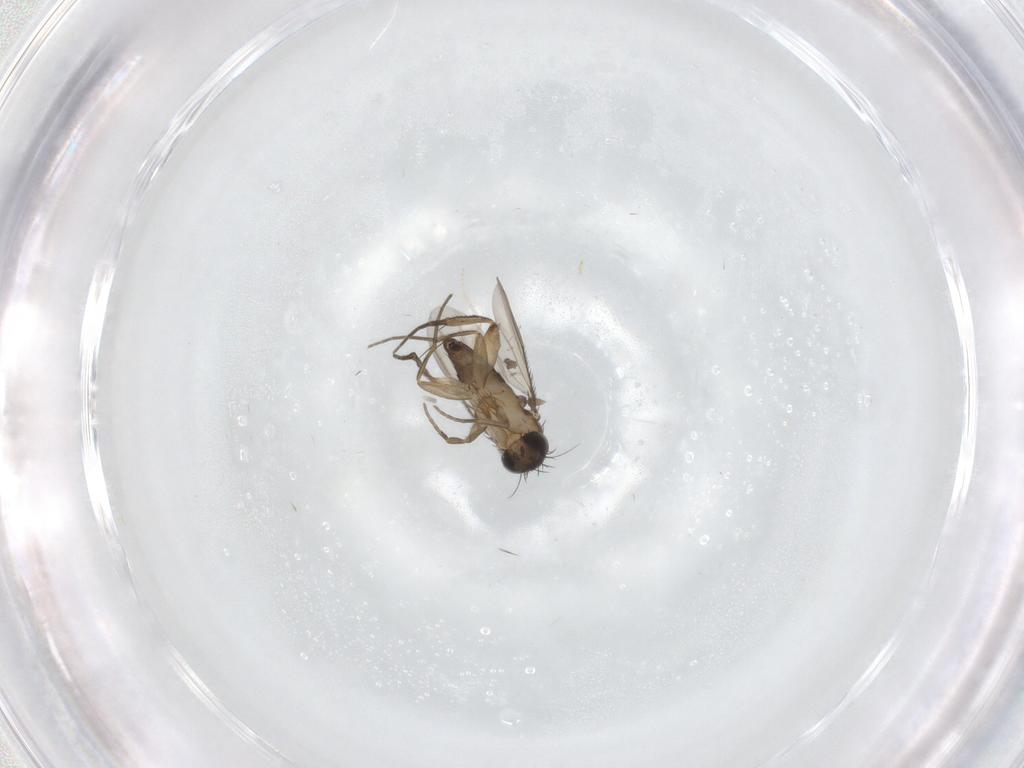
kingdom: Animalia
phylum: Arthropoda
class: Insecta
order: Diptera
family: Cecidomyiidae
